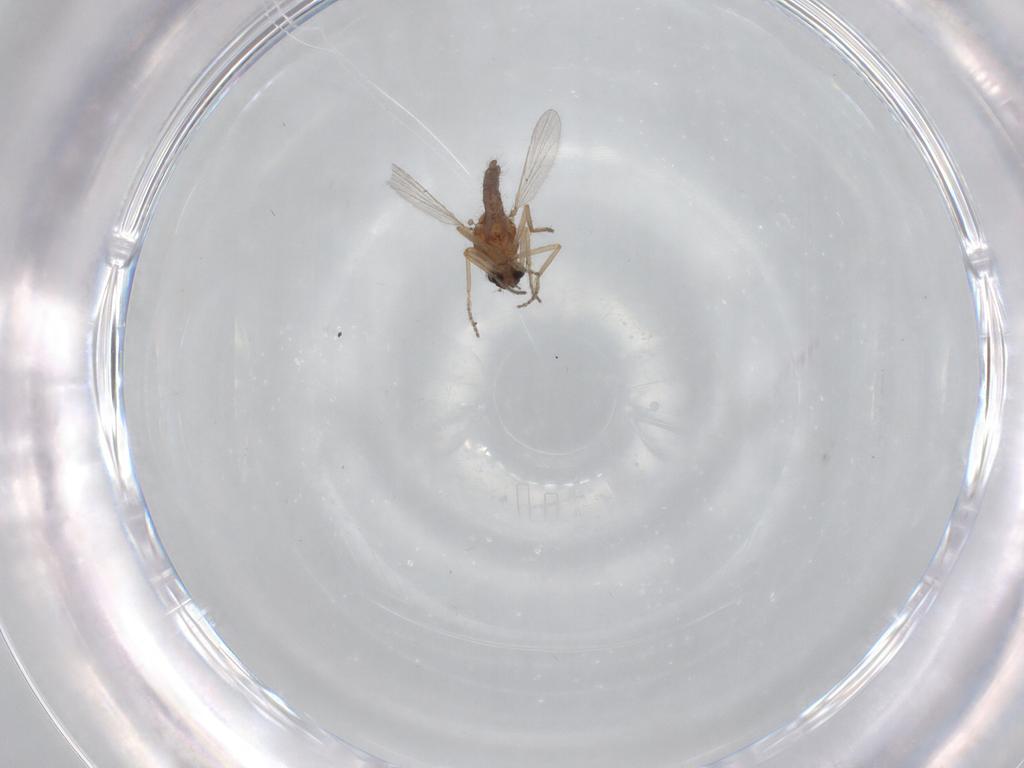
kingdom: Animalia
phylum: Arthropoda
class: Insecta
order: Diptera
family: Ceratopogonidae
